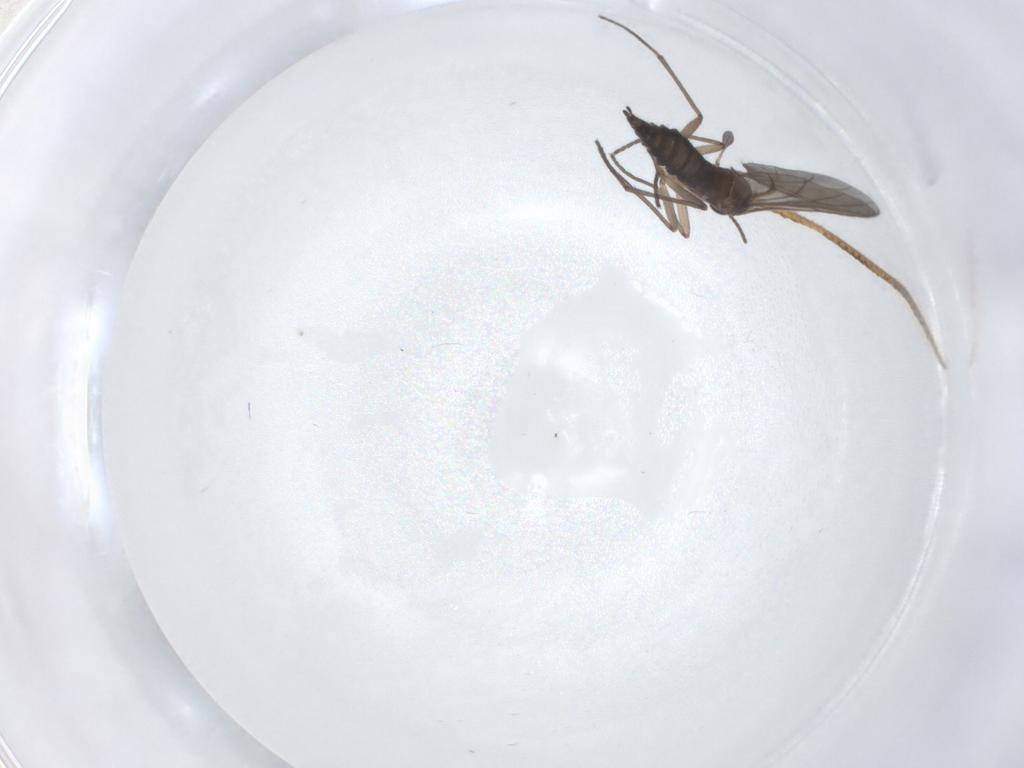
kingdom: Animalia
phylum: Arthropoda
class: Insecta
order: Diptera
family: Sciaridae
